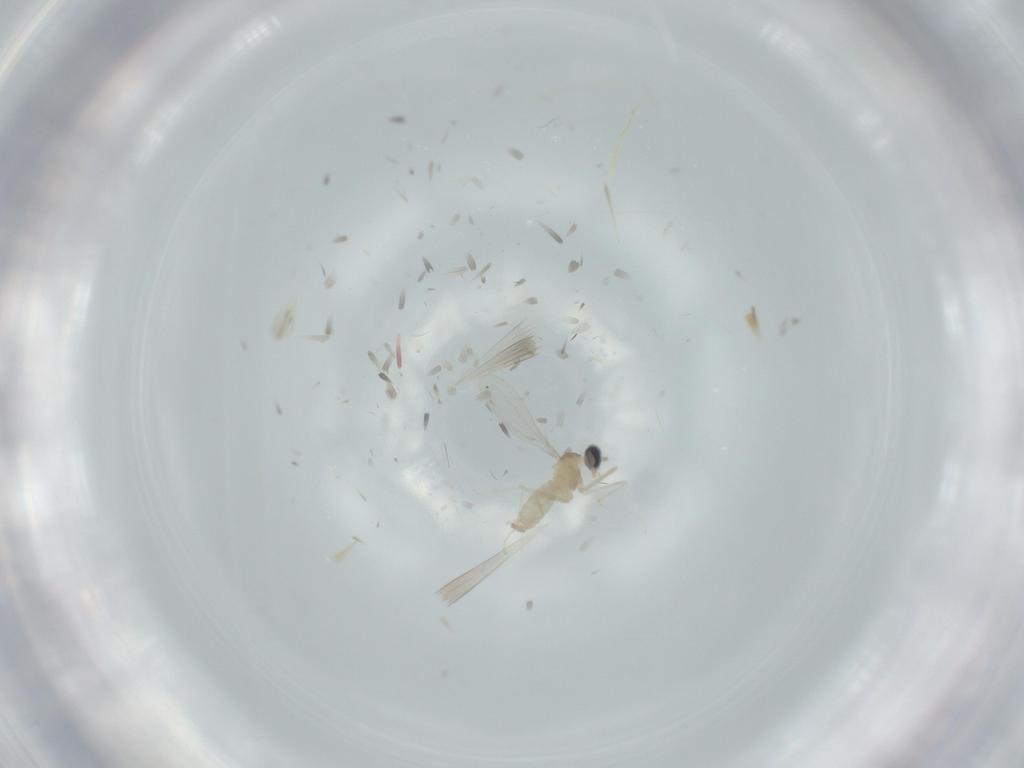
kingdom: Animalia
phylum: Arthropoda
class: Insecta
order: Diptera
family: Cecidomyiidae
